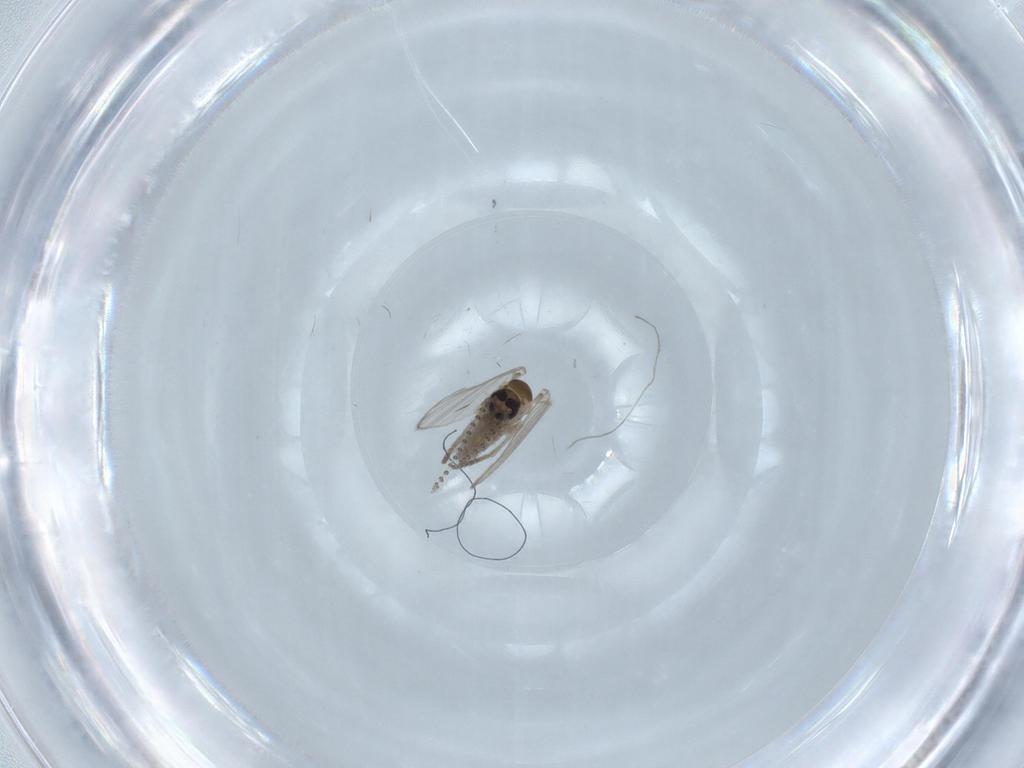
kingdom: Animalia
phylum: Arthropoda
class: Insecta
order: Diptera
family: Psychodidae
